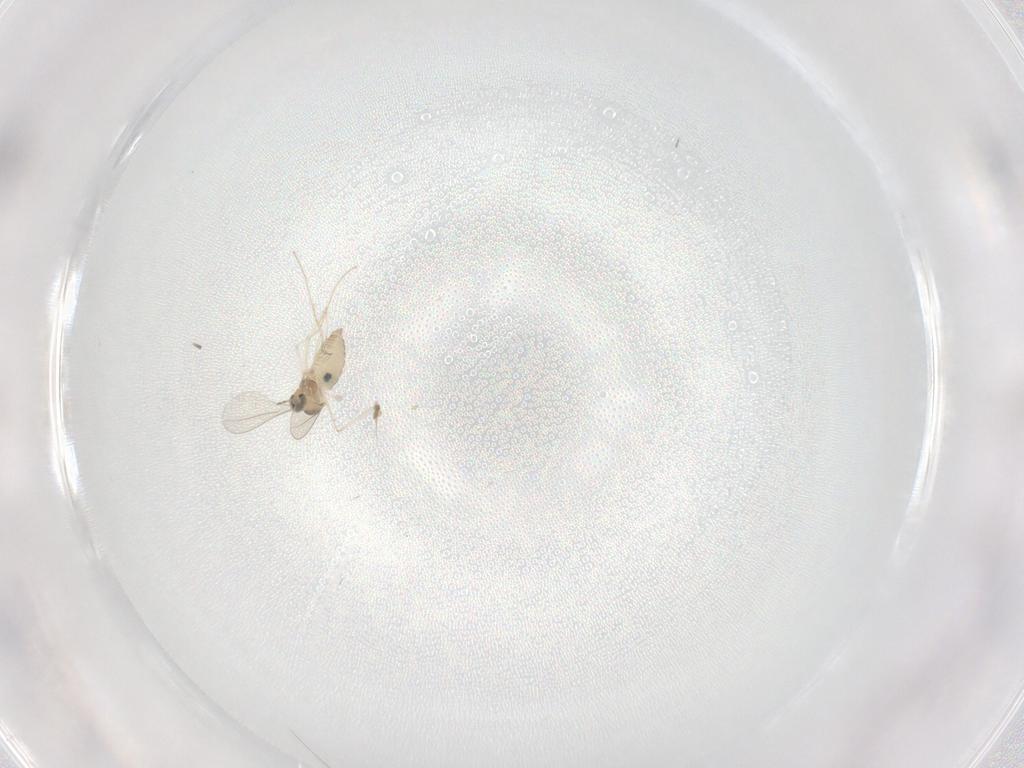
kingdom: Animalia
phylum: Arthropoda
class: Insecta
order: Diptera
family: Cecidomyiidae
